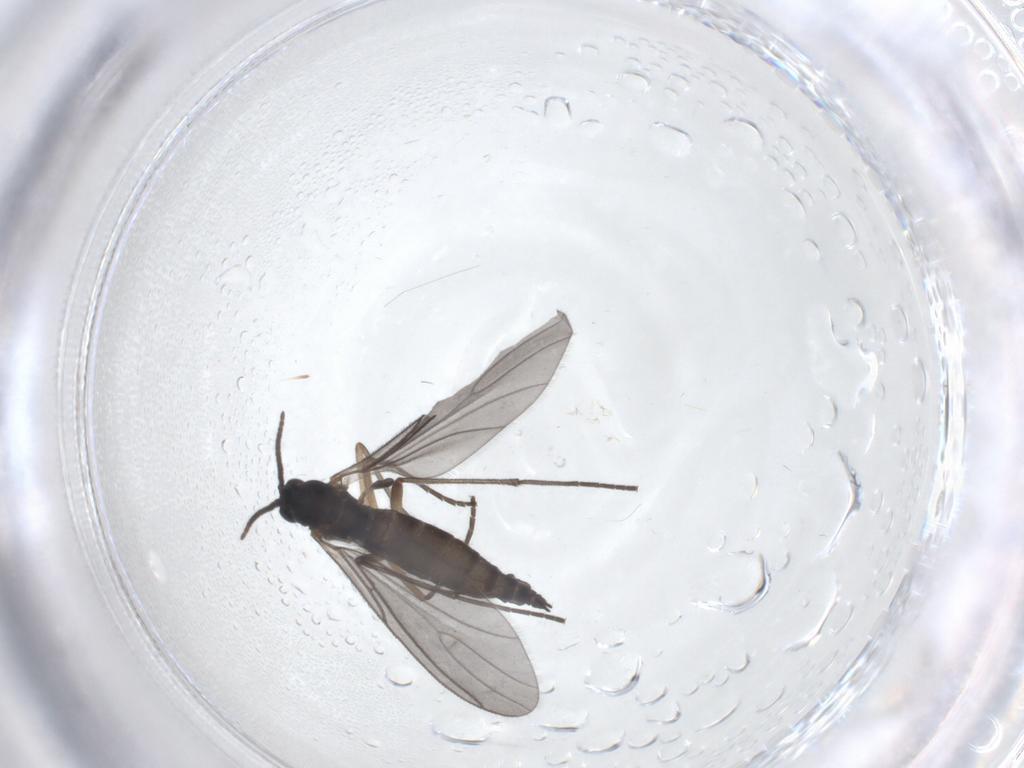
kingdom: Animalia
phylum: Arthropoda
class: Insecta
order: Diptera
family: Sciaridae
